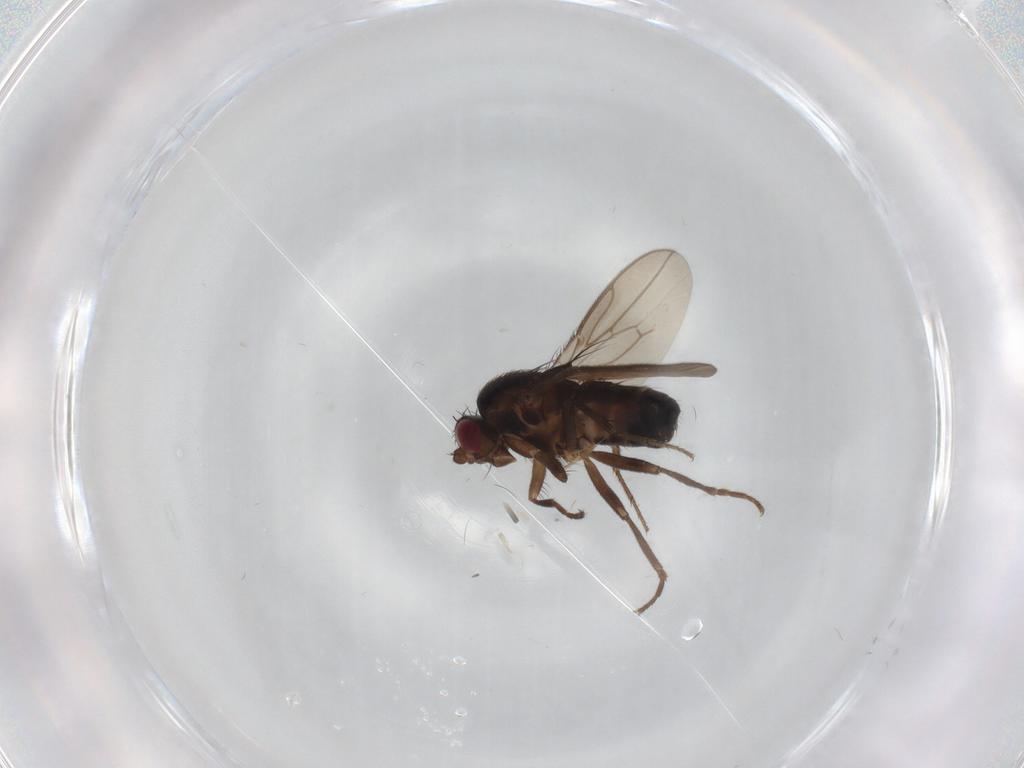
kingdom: Animalia
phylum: Arthropoda
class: Insecta
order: Diptera
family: Sphaeroceridae
